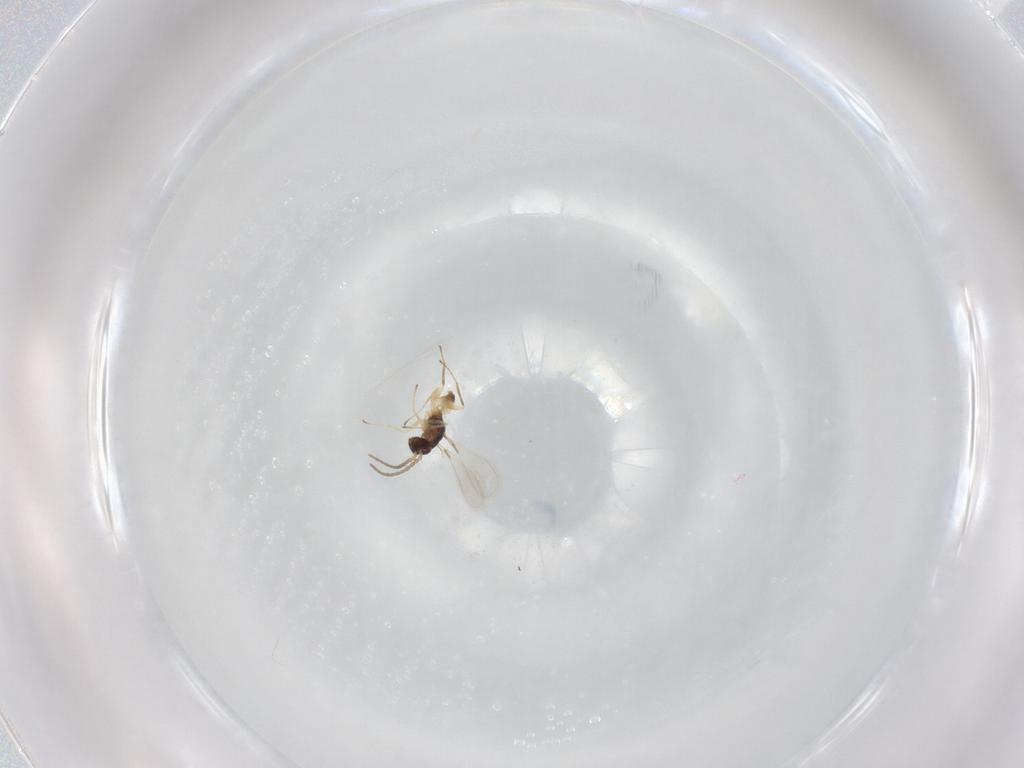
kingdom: Animalia
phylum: Arthropoda
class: Insecta
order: Hymenoptera
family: Mymaridae
